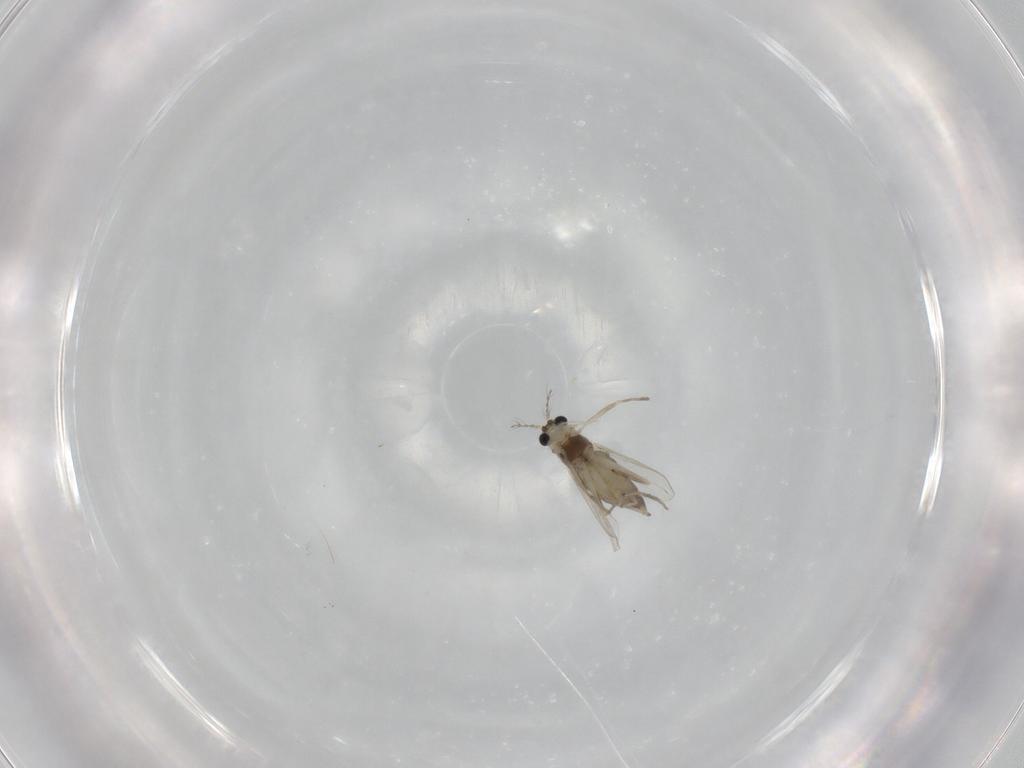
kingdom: Animalia
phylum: Arthropoda
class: Insecta
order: Diptera
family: Chironomidae
